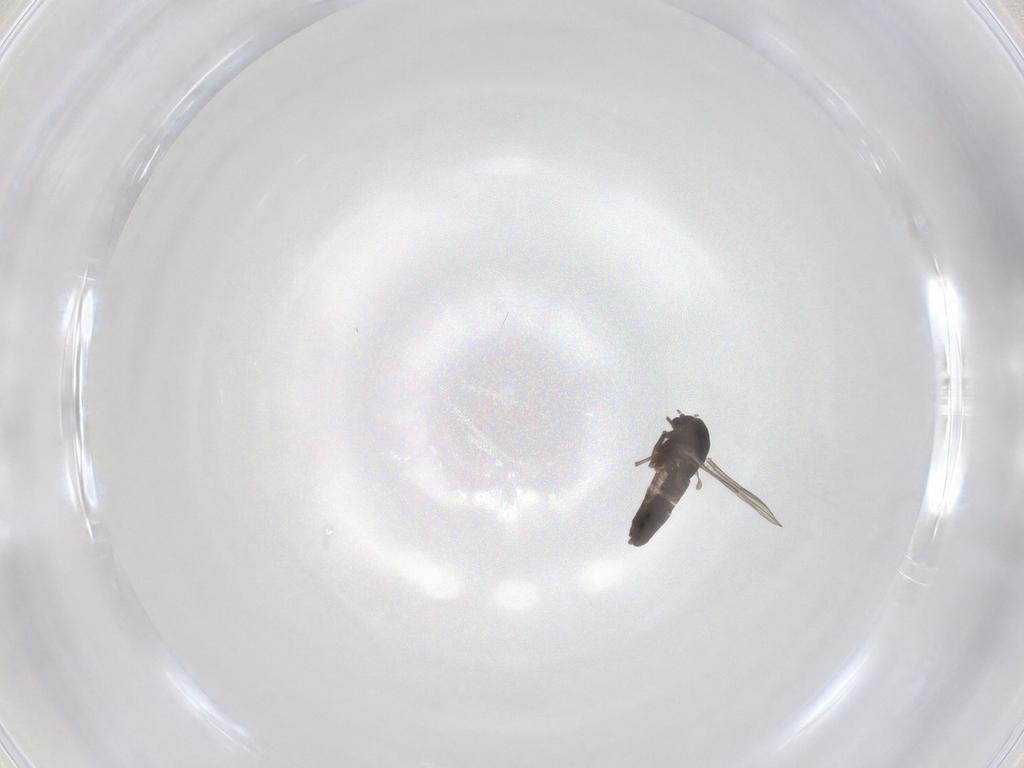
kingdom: Animalia
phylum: Arthropoda
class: Insecta
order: Diptera
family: Chironomidae
